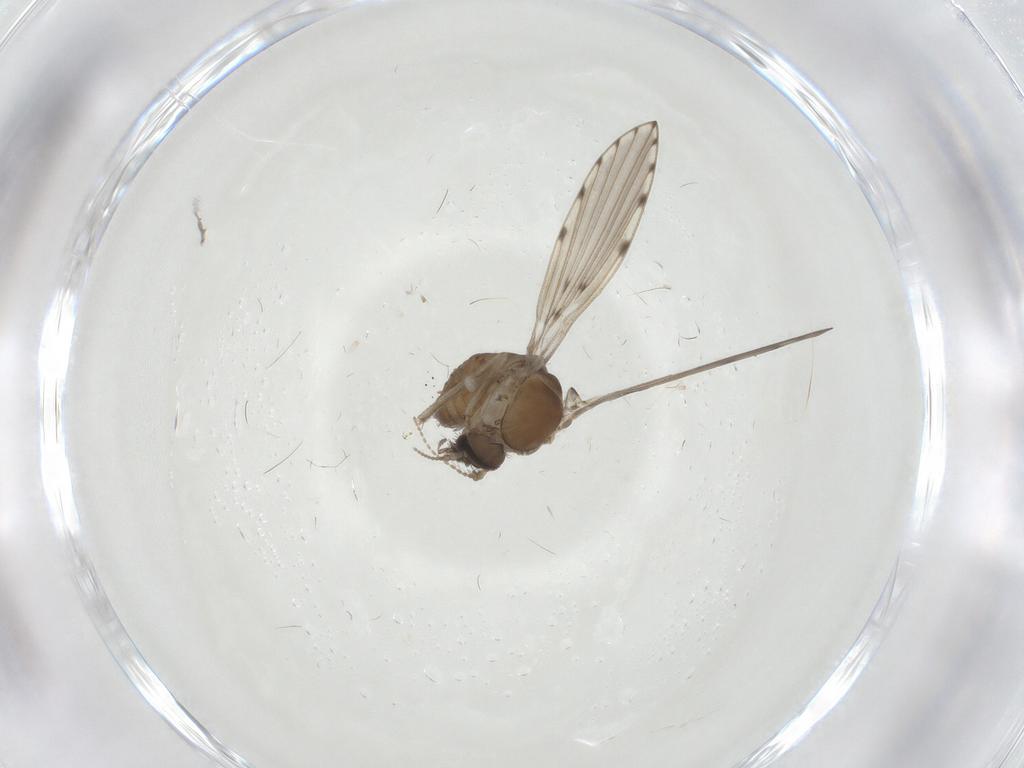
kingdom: Animalia
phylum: Arthropoda
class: Insecta
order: Diptera
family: Psychodidae
